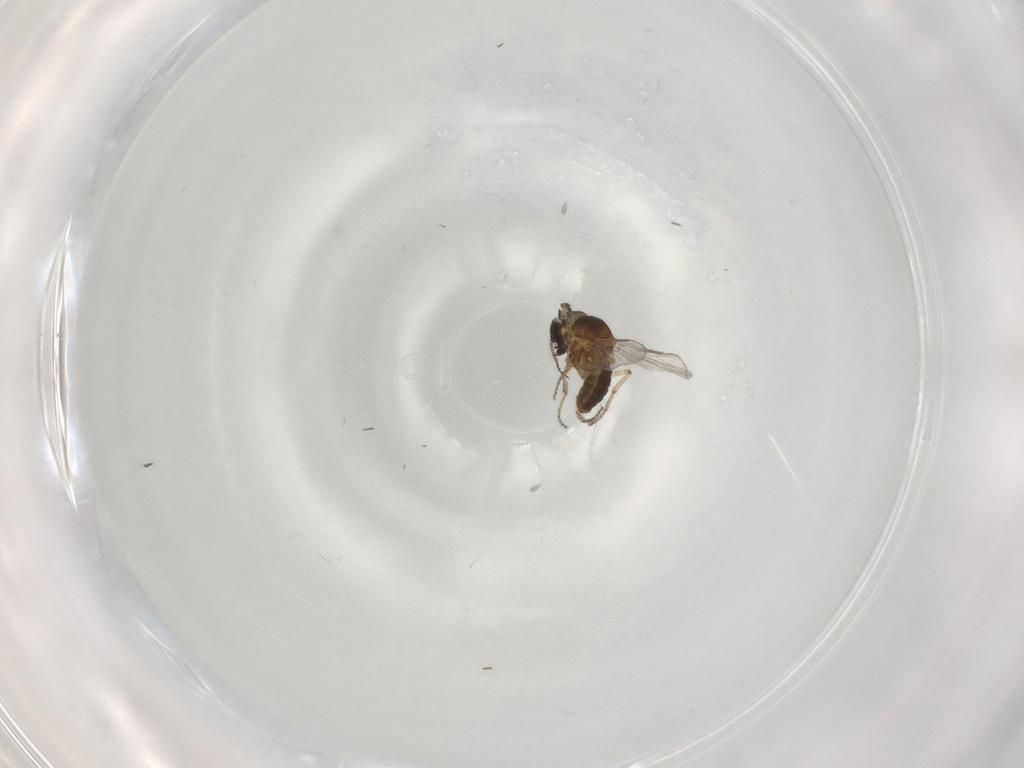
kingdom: Animalia
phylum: Arthropoda
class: Insecta
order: Diptera
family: Ceratopogonidae
